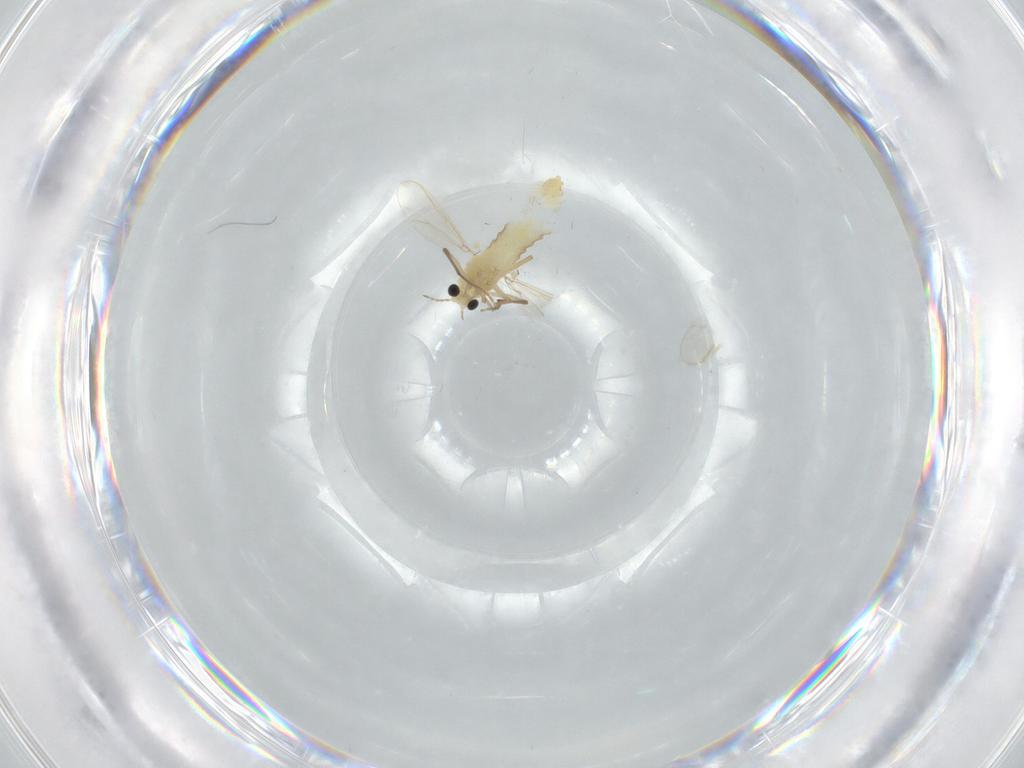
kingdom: Animalia
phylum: Arthropoda
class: Insecta
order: Diptera
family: Chironomidae
